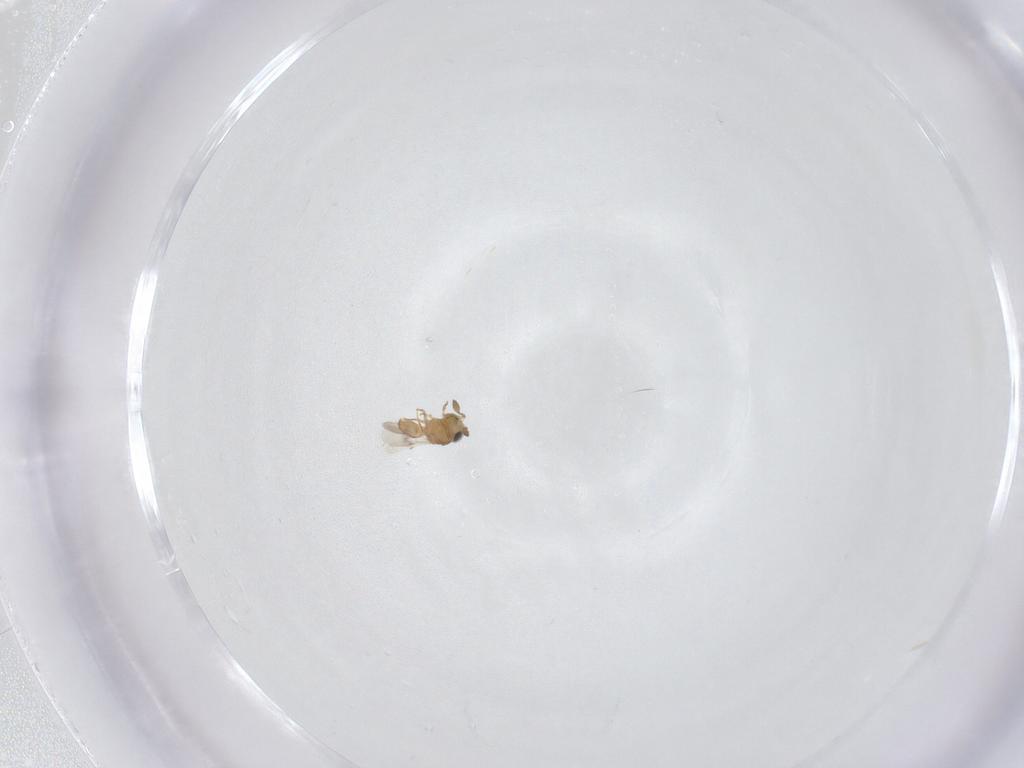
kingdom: Animalia
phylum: Arthropoda
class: Insecta
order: Hymenoptera
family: Scelionidae
